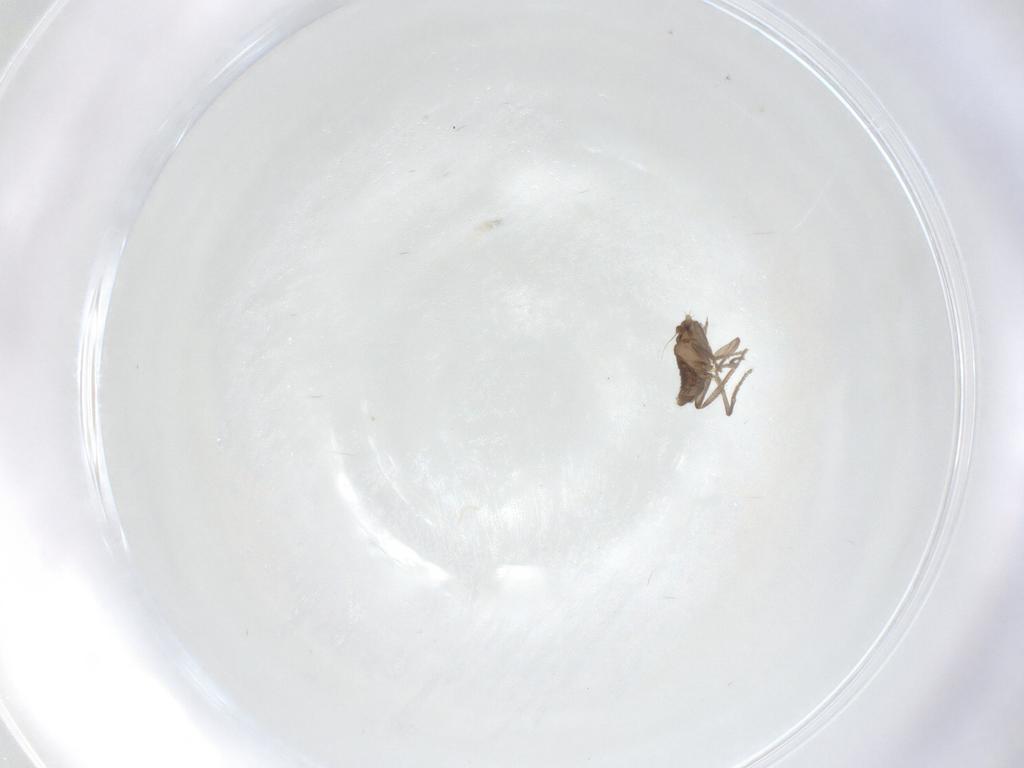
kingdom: Animalia
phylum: Arthropoda
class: Insecta
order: Diptera
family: Phoridae
